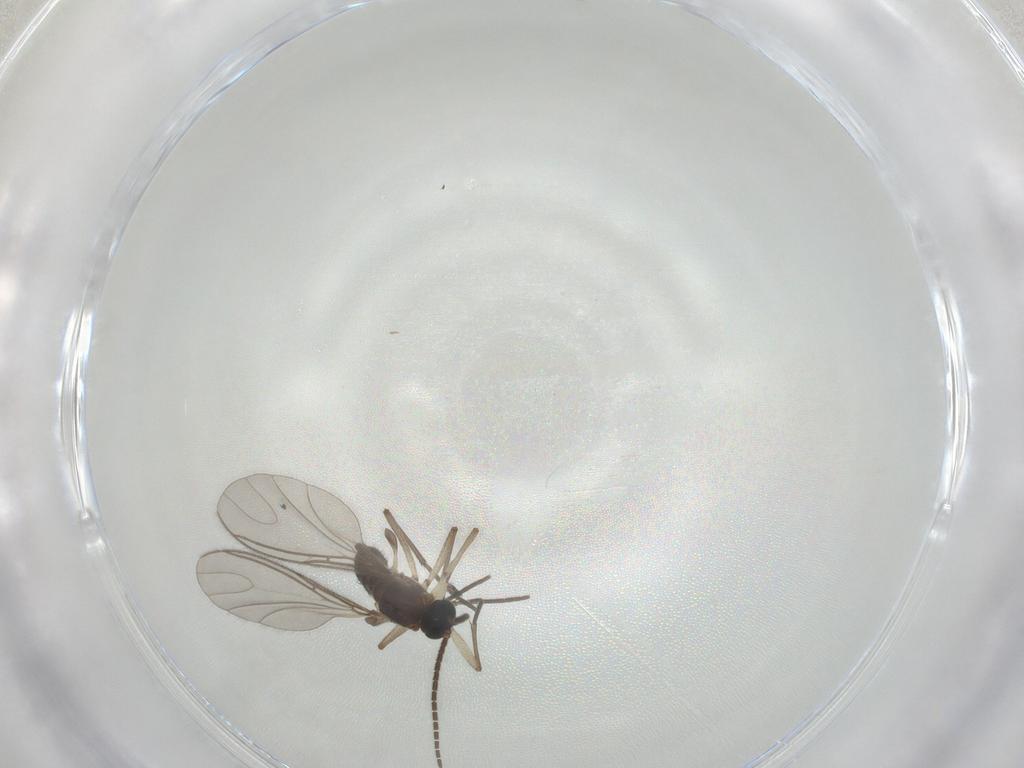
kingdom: Animalia
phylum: Arthropoda
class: Insecta
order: Diptera
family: Sciaridae
